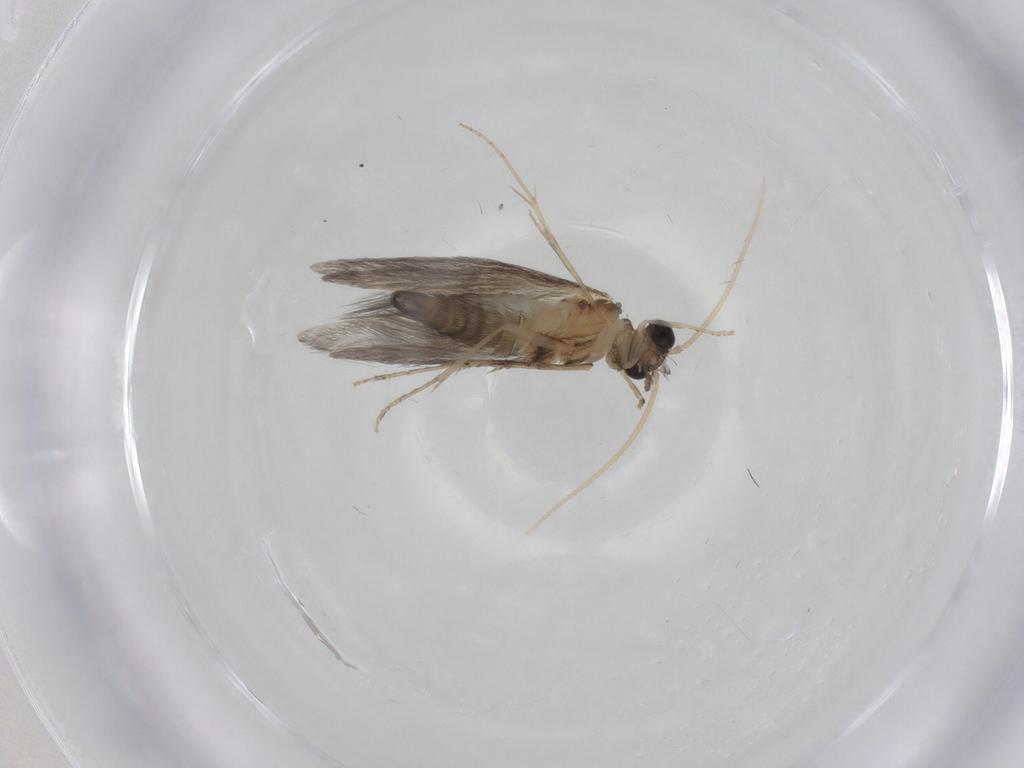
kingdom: Animalia
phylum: Arthropoda
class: Insecta
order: Trichoptera
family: Hydroptilidae
